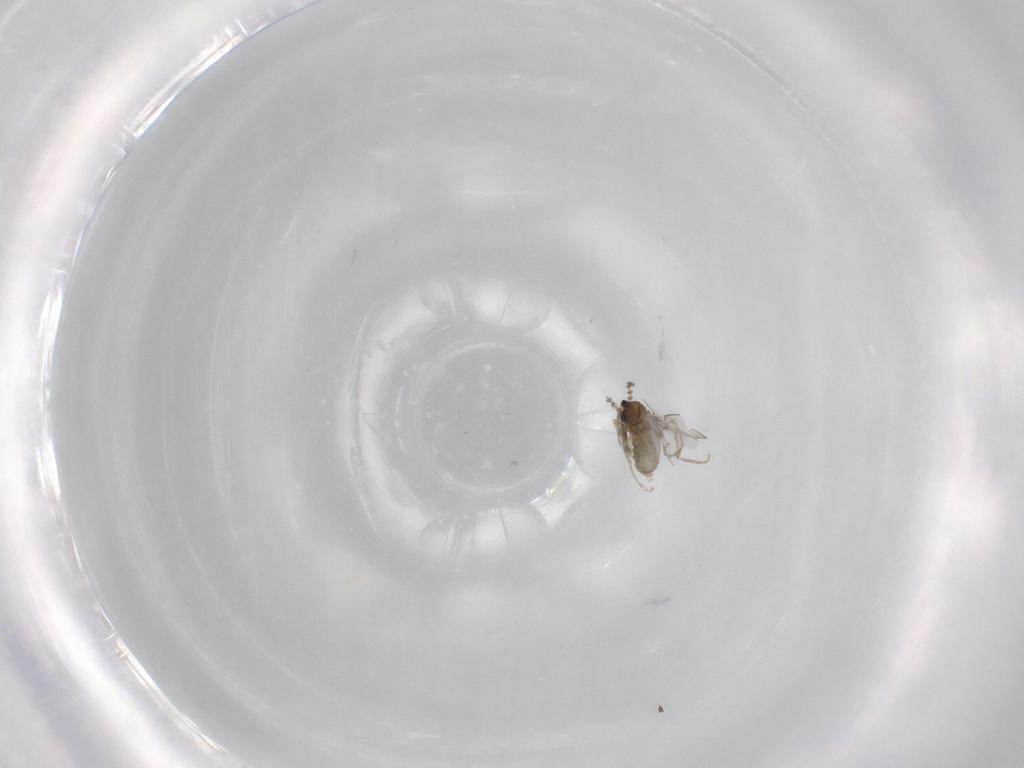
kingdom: Animalia
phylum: Arthropoda
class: Insecta
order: Diptera
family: Cecidomyiidae
